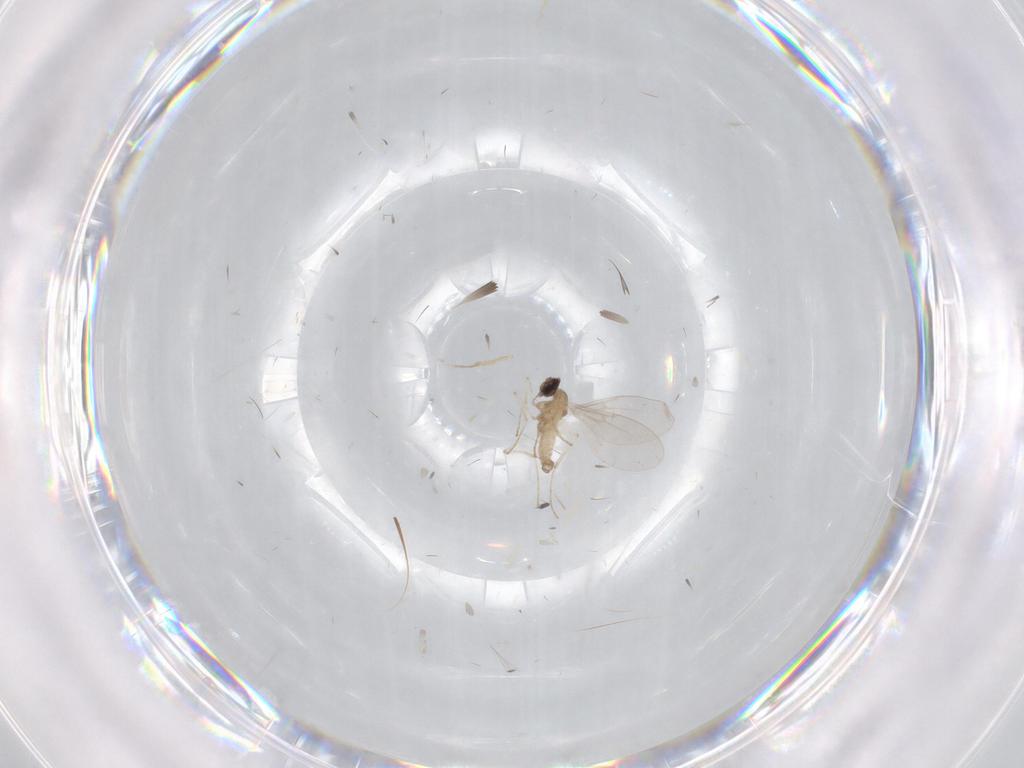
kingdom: Animalia
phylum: Arthropoda
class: Insecta
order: Diptera
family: Cecidomyiidae
